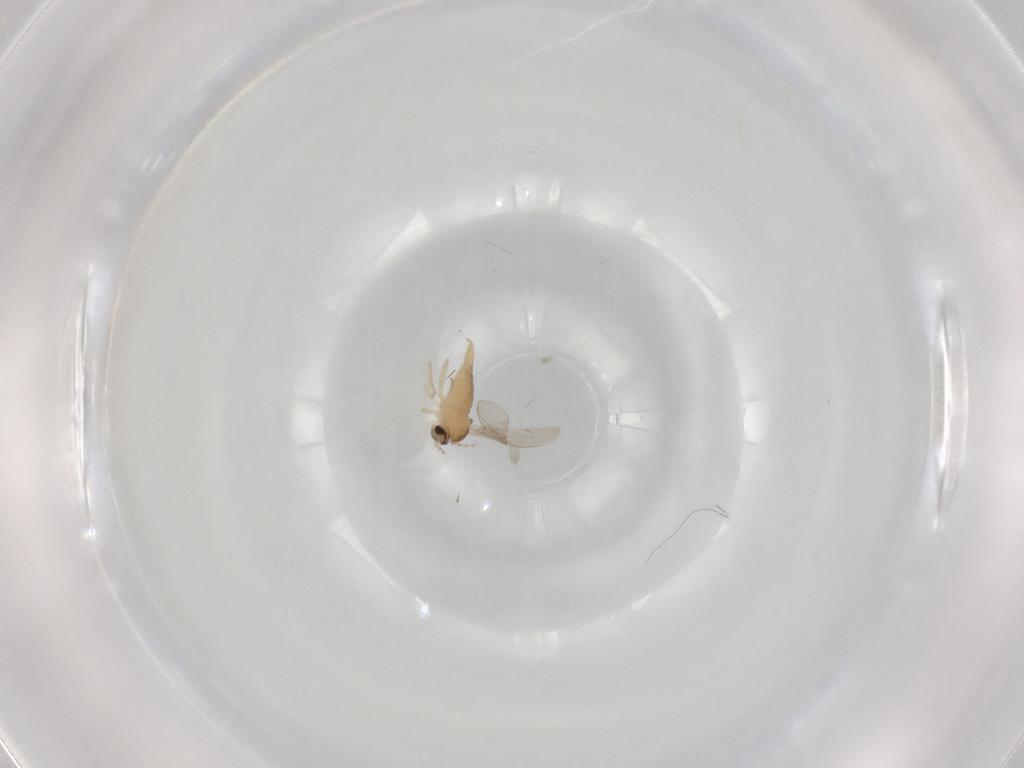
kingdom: Animalia
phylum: Arthropoda
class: Insecta
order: Diptera
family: Cecidomyiidae
